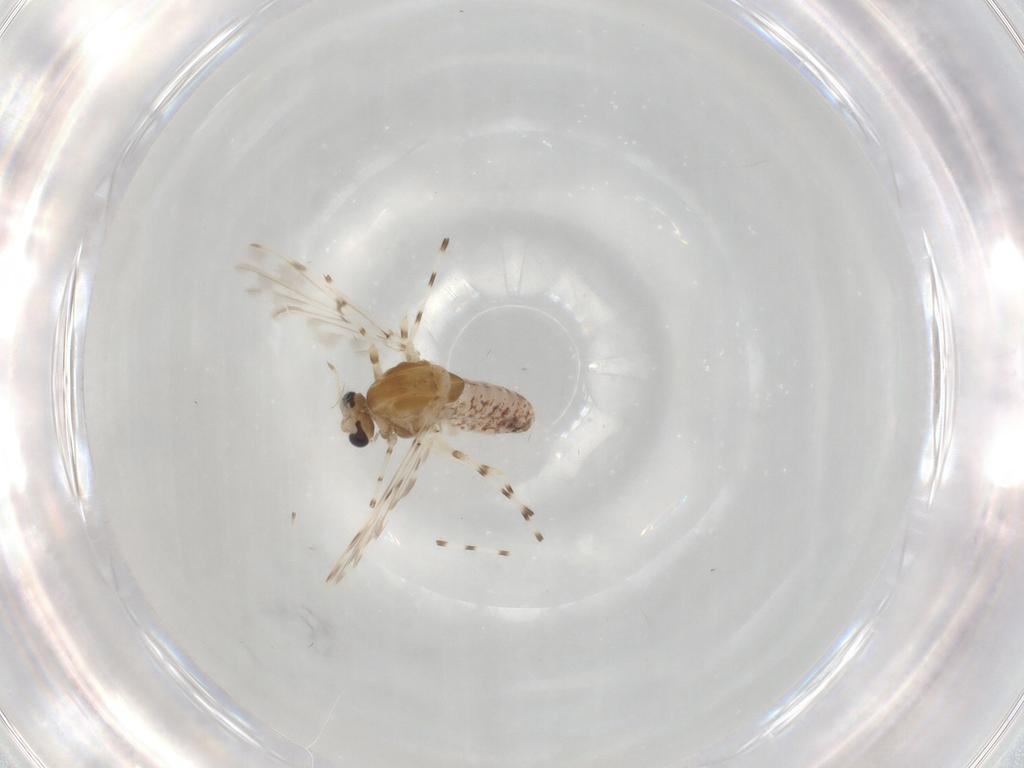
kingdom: Animalia
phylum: Arthropoda
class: Insecta
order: Diptera
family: Chironomidae
